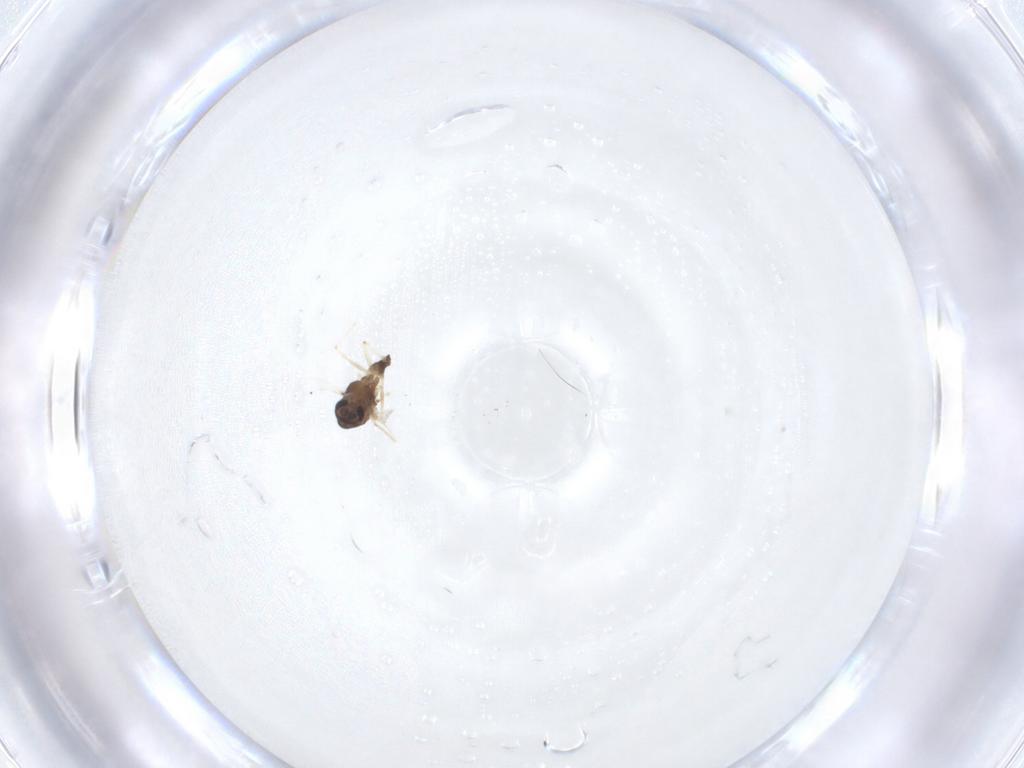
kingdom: Animalia
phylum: Arthropoda
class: Insecta
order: Diptera
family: Chironomidae
